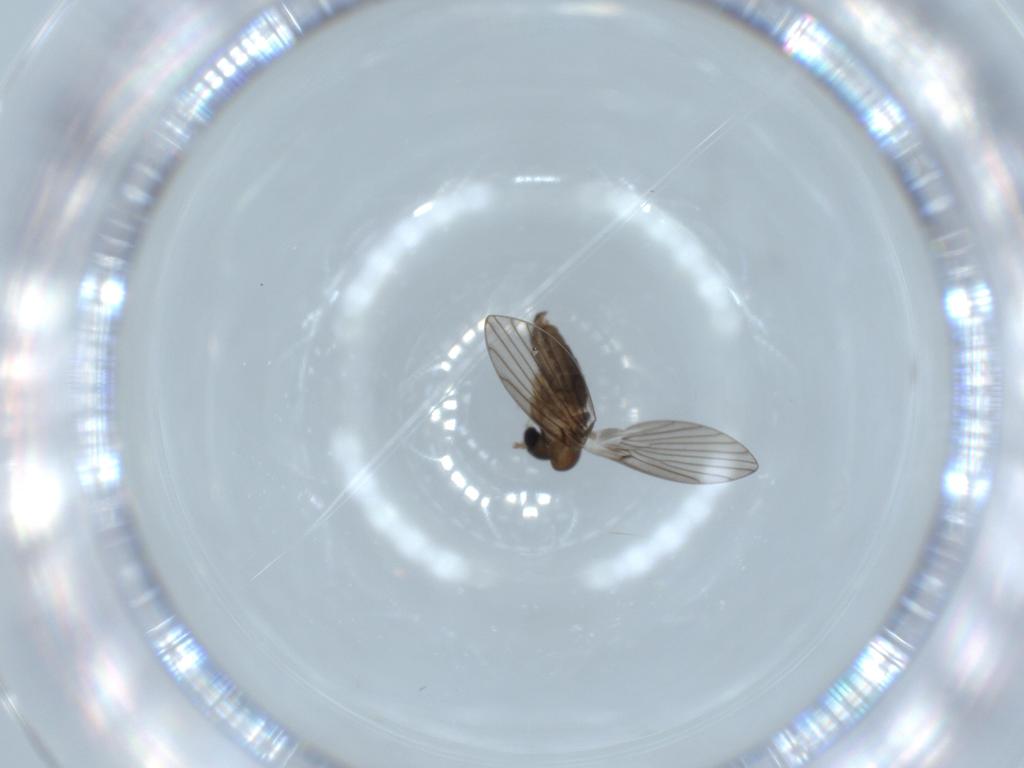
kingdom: Animalia
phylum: Arthropoda
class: Insecta
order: Diptera
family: Psychodidae
